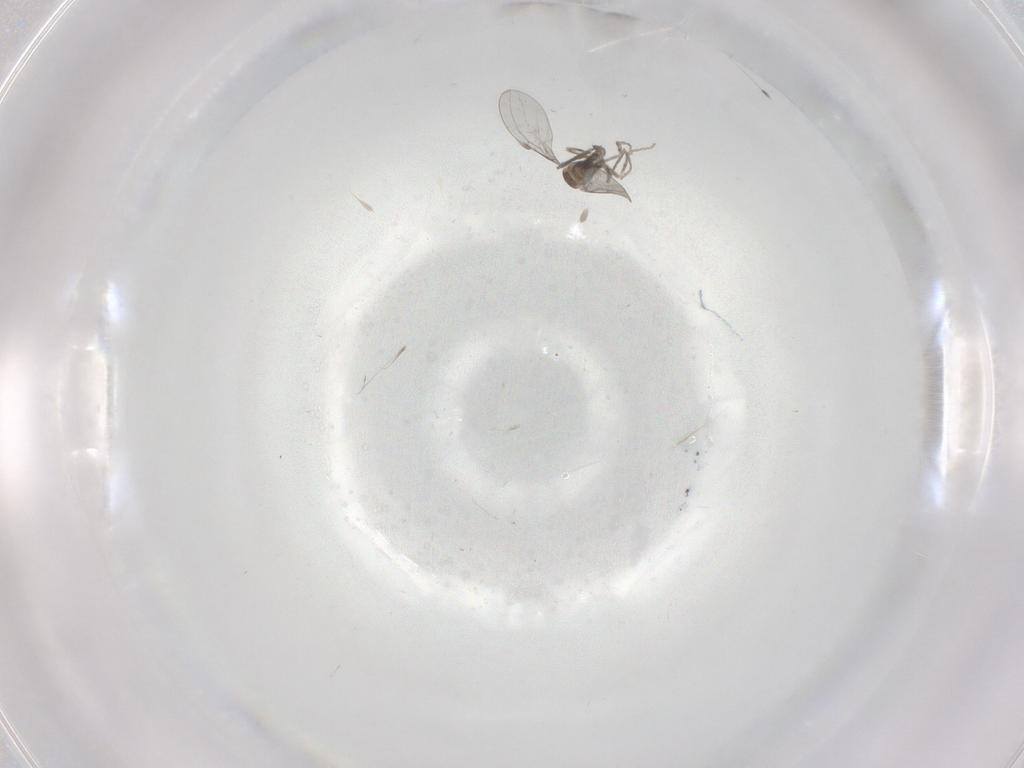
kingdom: Animalia
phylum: Arthropoda
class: Insecta
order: Diptera
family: Cecidomyiidae
